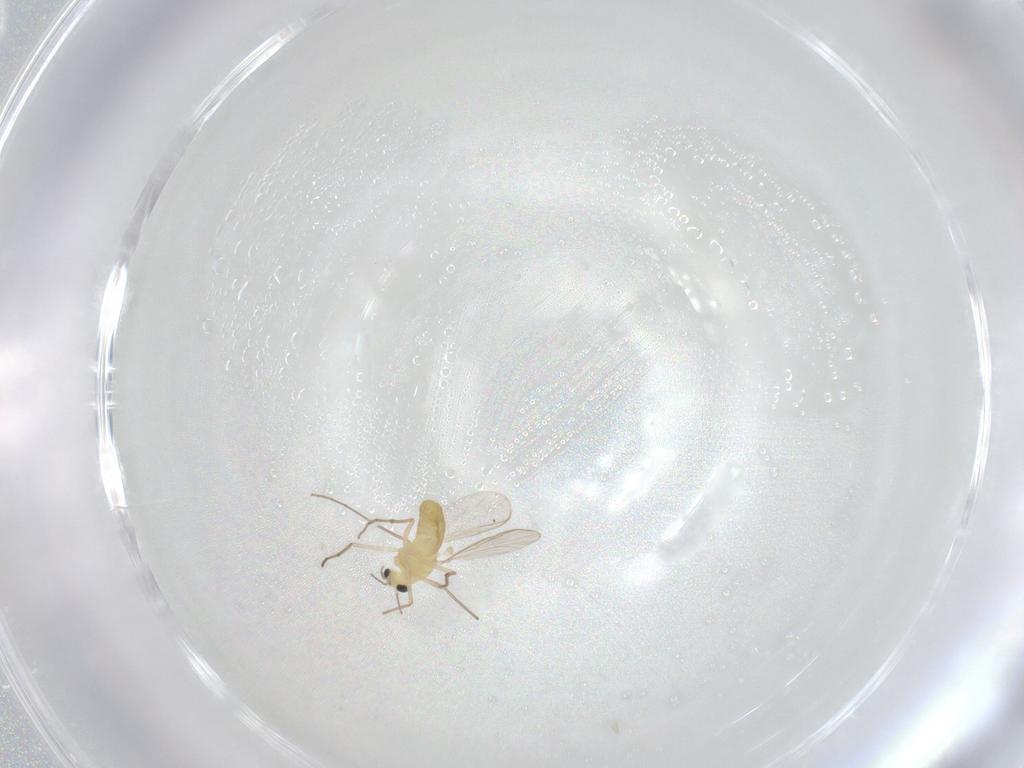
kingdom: Animalia
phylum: Arthropoda
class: Insecta
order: Diptera
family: Chironomidae
